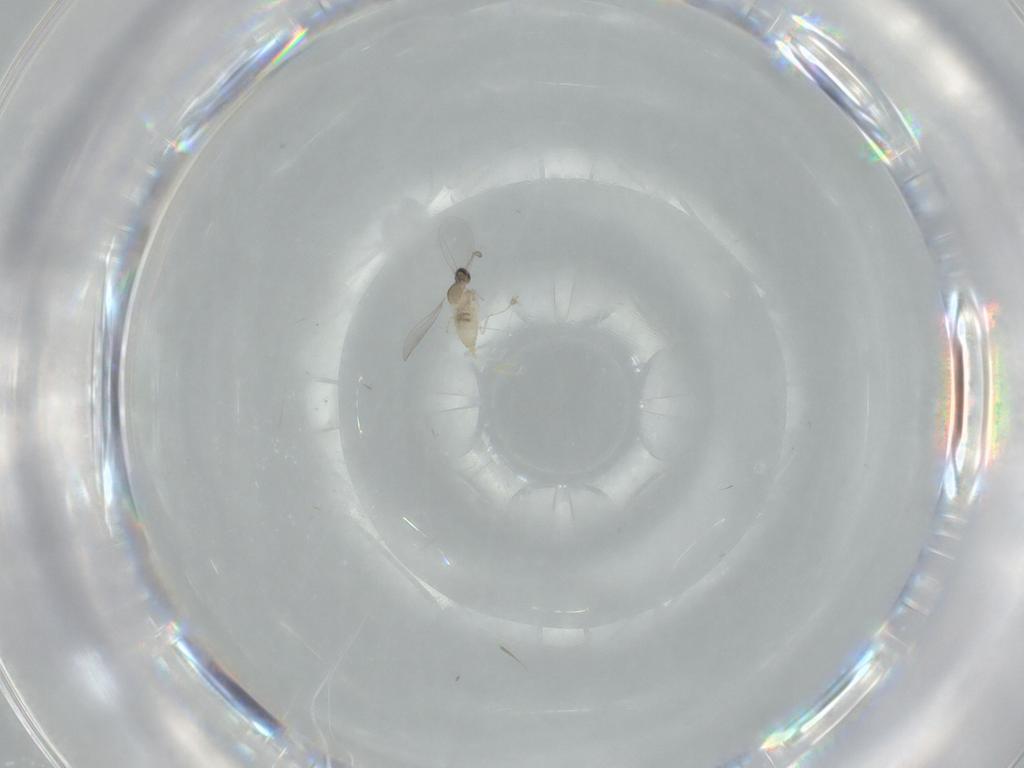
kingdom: Animalia
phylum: Arthropoda
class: Insecta
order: Diptera
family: Cecidomyiidae
